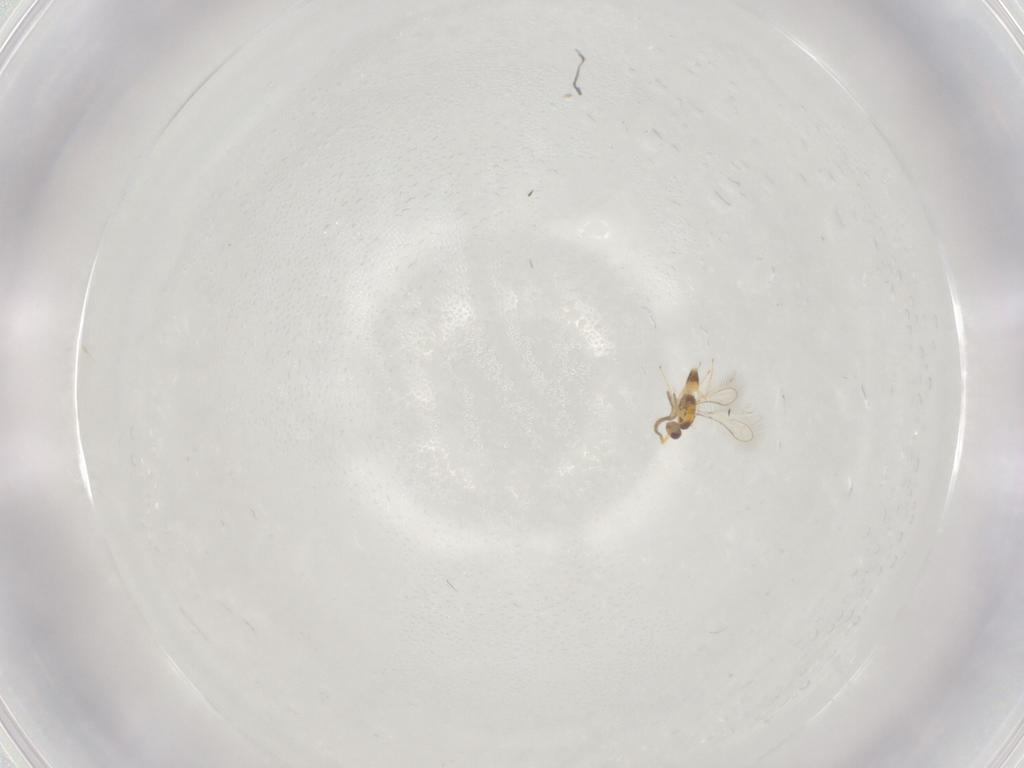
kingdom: Animalia
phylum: Arthropoda
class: Insecta
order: Hymenoptera
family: Mymaridae
